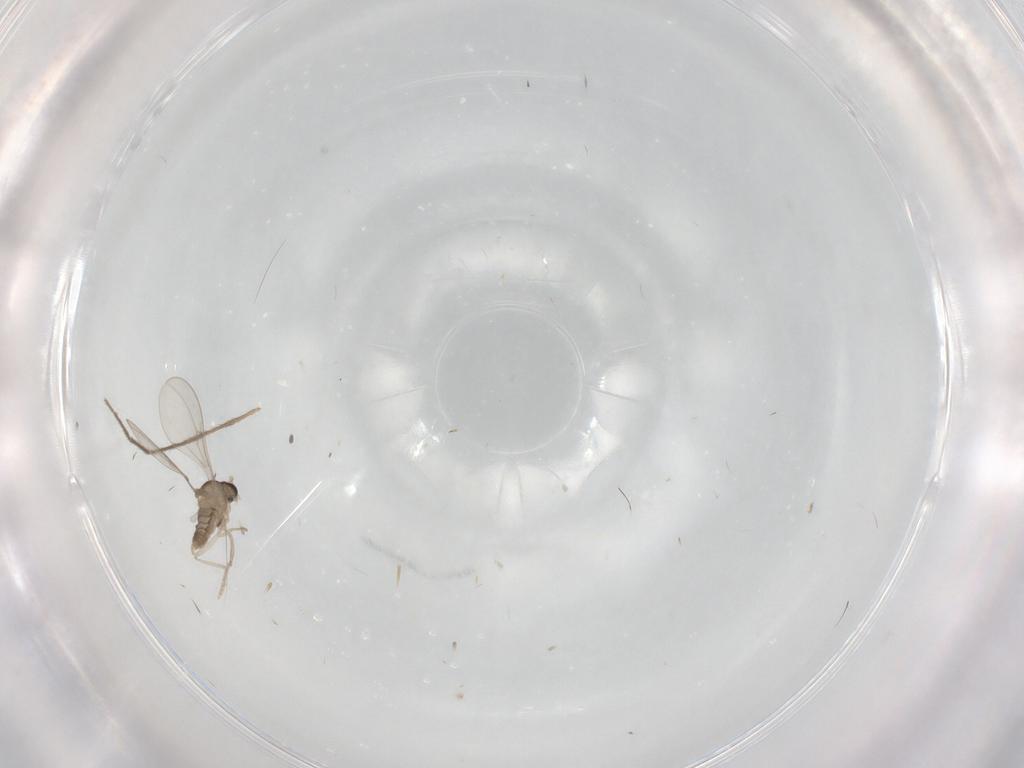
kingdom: Animalia
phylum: Arthropoda
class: Insecta
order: Diptera
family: Chironomidae
